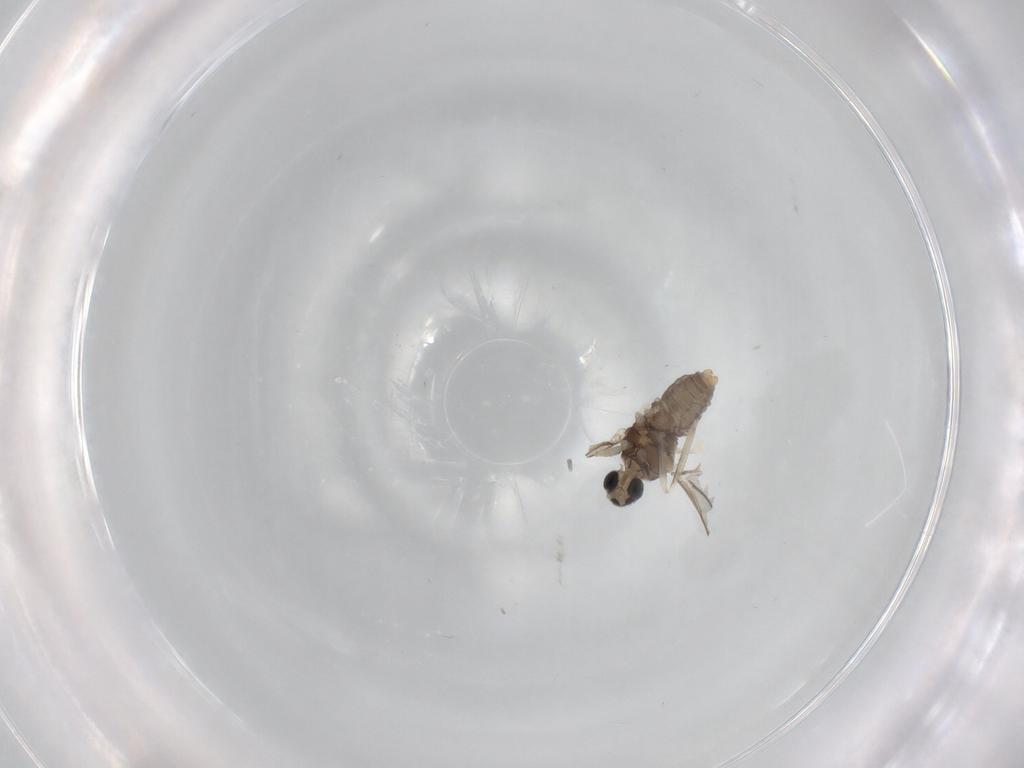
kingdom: Animalia
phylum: Arthropoda
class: Insecta
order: Diptera
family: Cecidomyiidae
